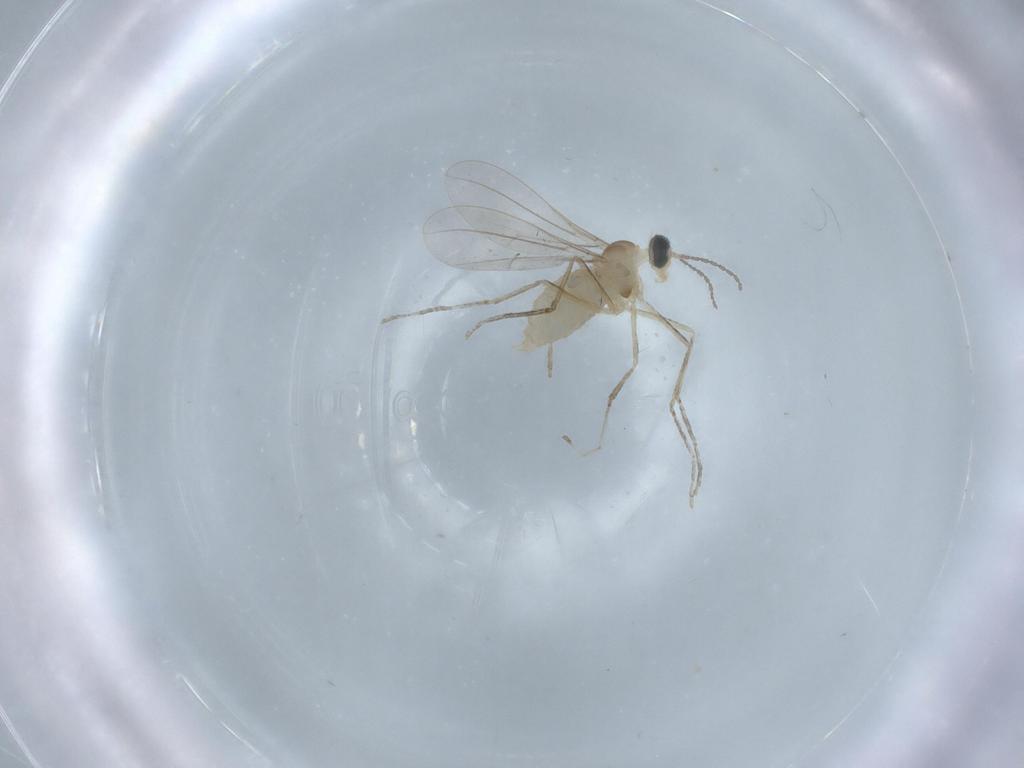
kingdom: Animalia
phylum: Arthropoda
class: Insecta
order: Diptera
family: Cecidomyiidae
